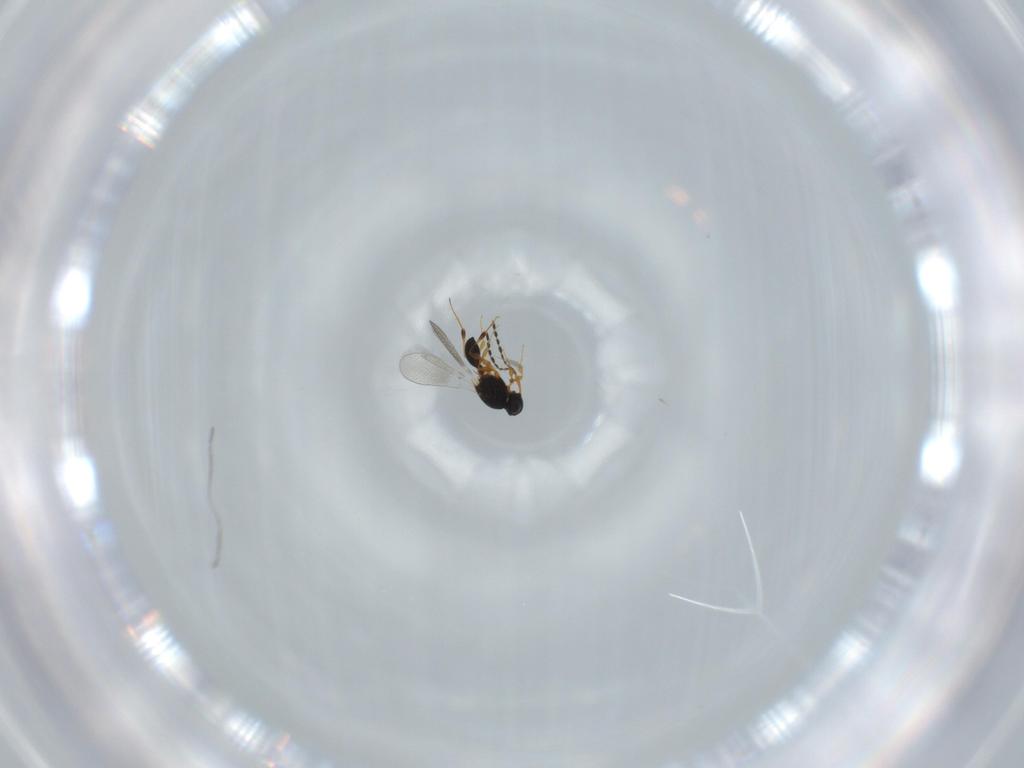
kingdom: Animalia
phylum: Arthropoda
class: Insecta
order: Hymenoptera
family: Platygastridae
